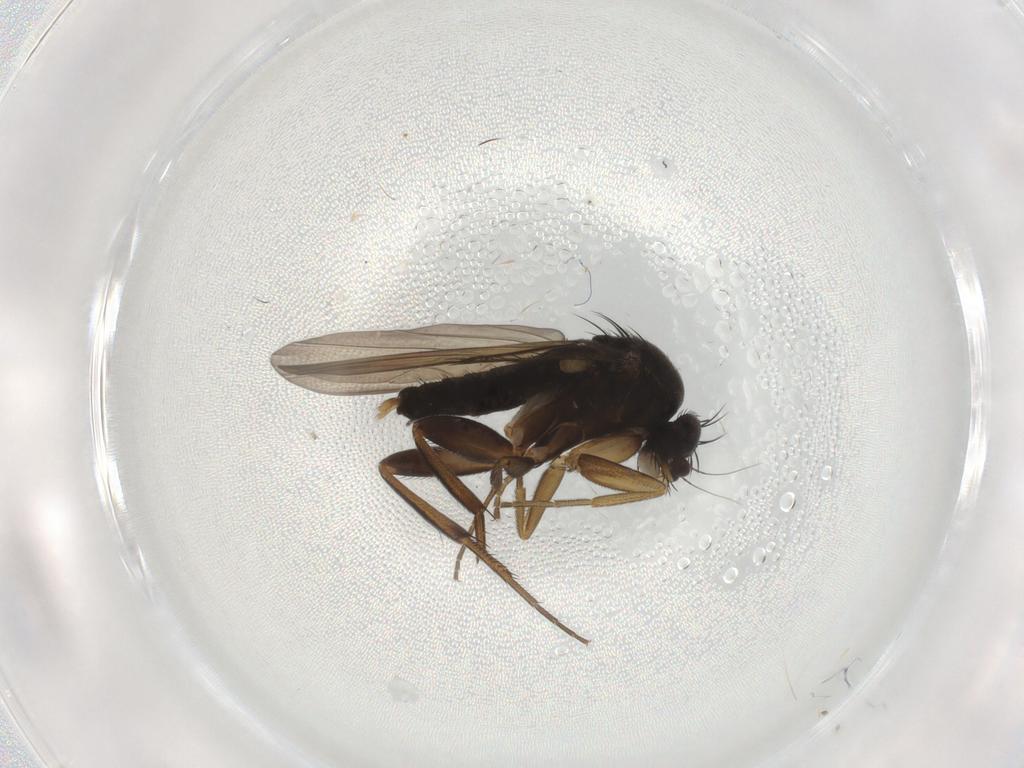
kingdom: Animalia
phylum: Arthropoda
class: Insecta
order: Diptera
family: Phoridae
